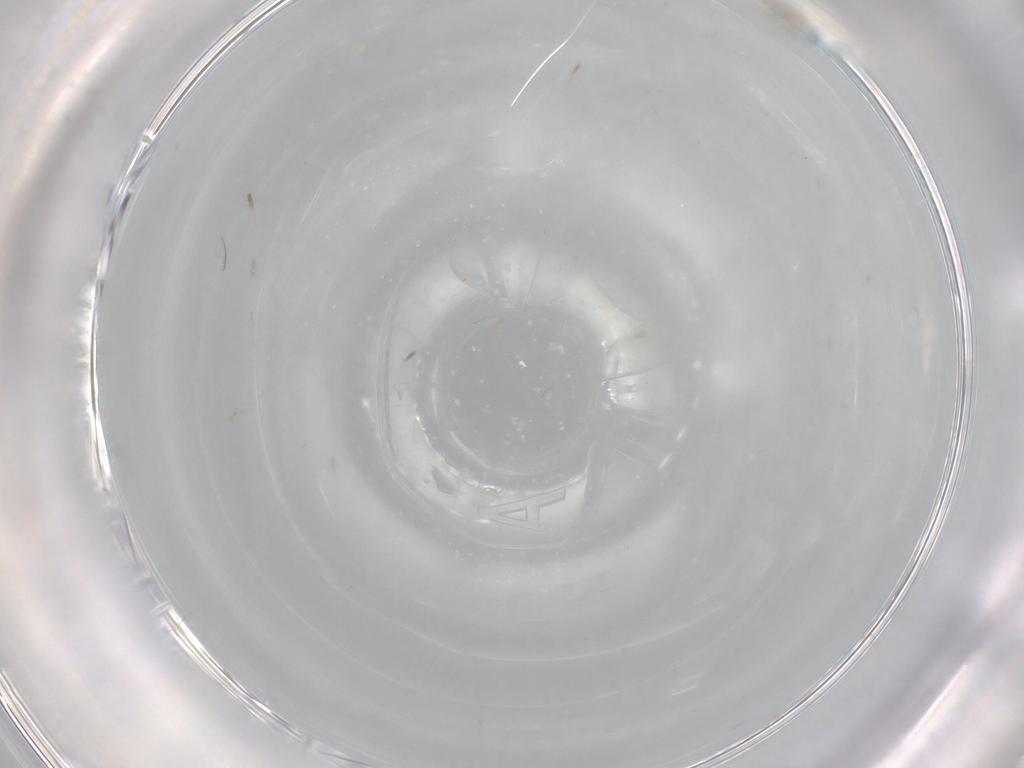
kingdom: Animalia
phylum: Arthropoda
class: Insecta
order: Diptera
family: Cecidomyiidae
